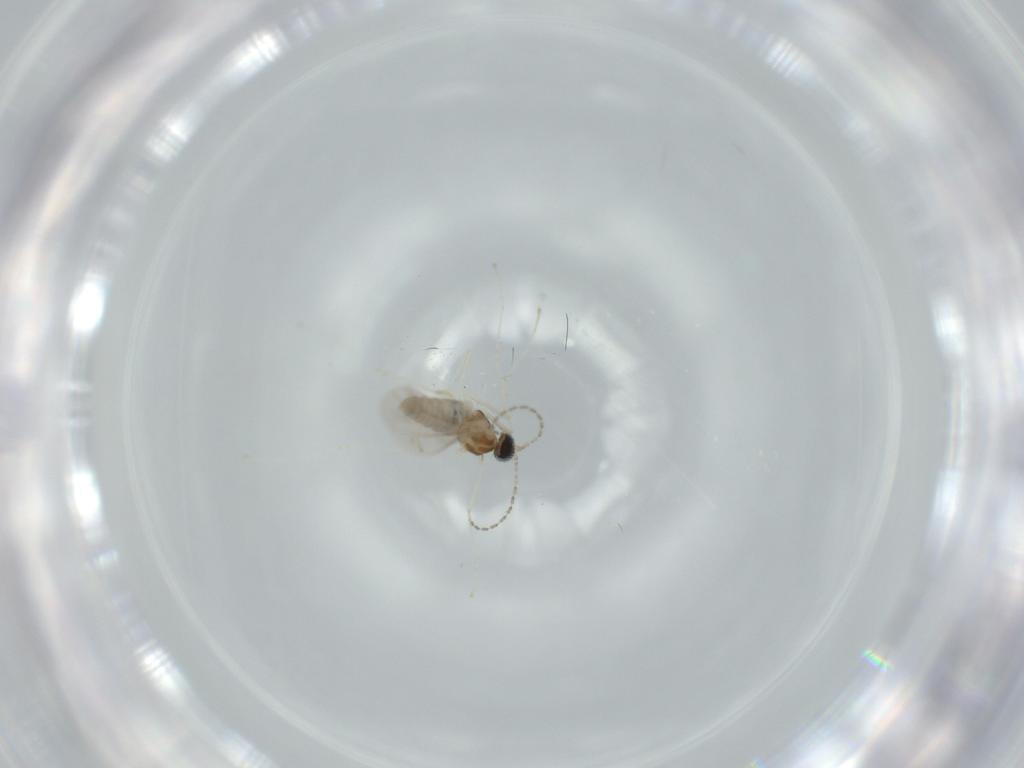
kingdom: Animalia
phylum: Arthropoda
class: Insecta
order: Diptera
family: Cecidomyiidae
